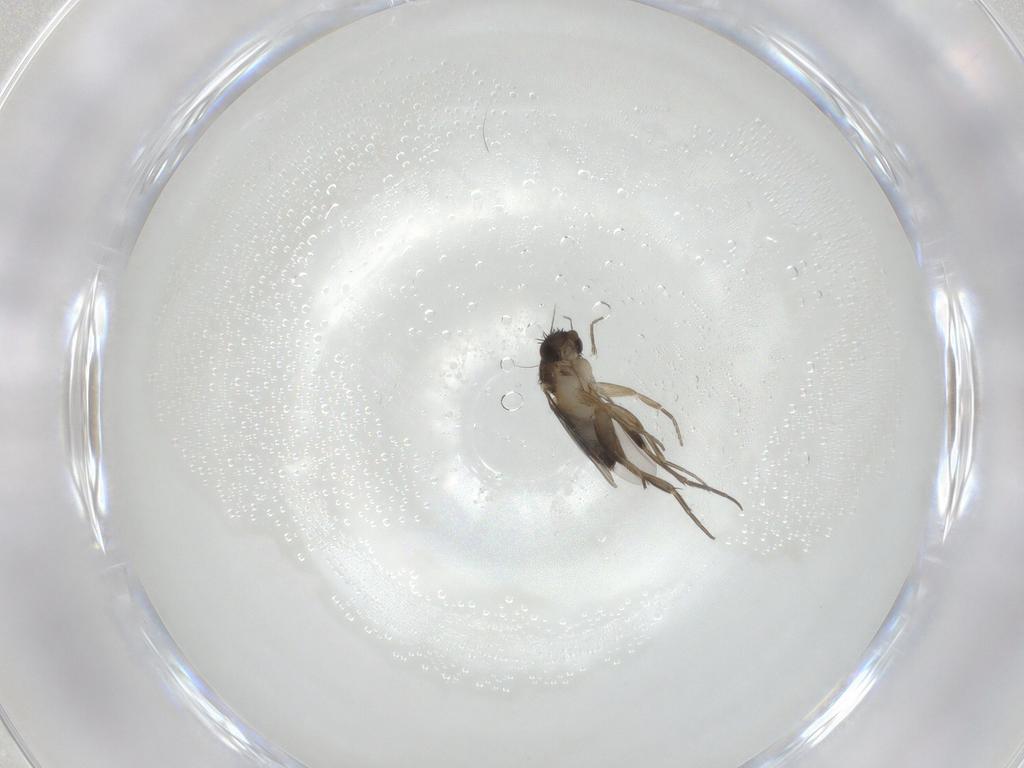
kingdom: Animalia
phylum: Arthropoda
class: Insecta
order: Diptera
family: Phoridae
